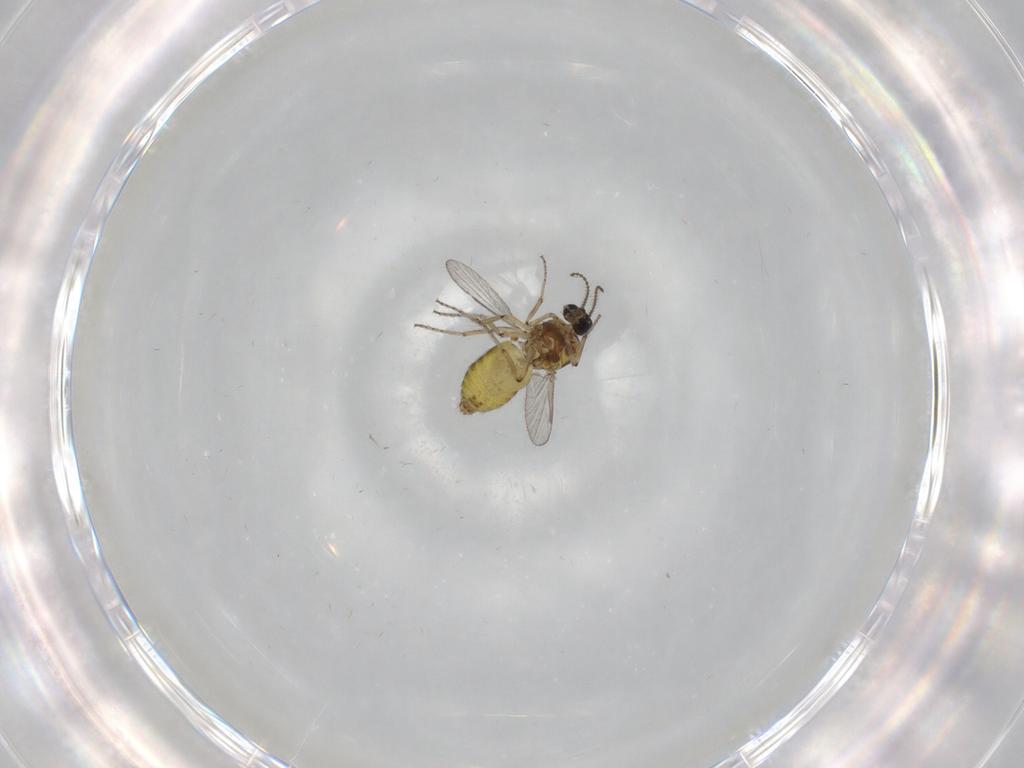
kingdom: Animalia
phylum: Arthropoda
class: Insecta
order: Diptera
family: Ceratopogonidae
